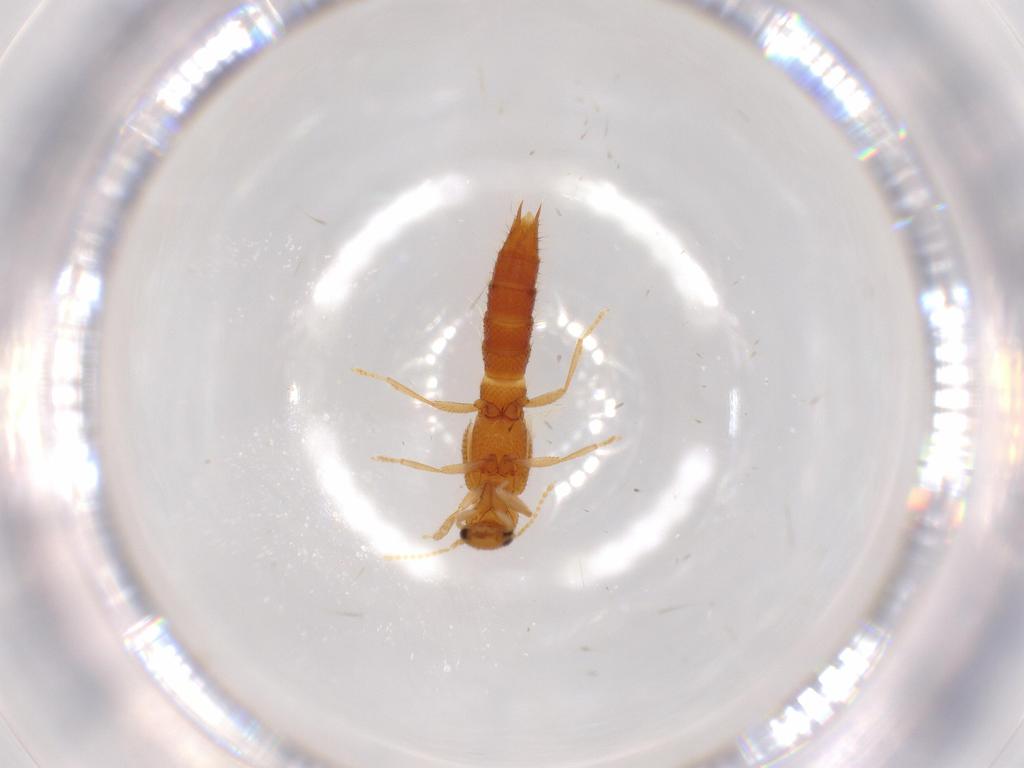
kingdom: Animalia
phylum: Arthropoda
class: Insecta
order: Coleoptera
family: Staphylinidae
